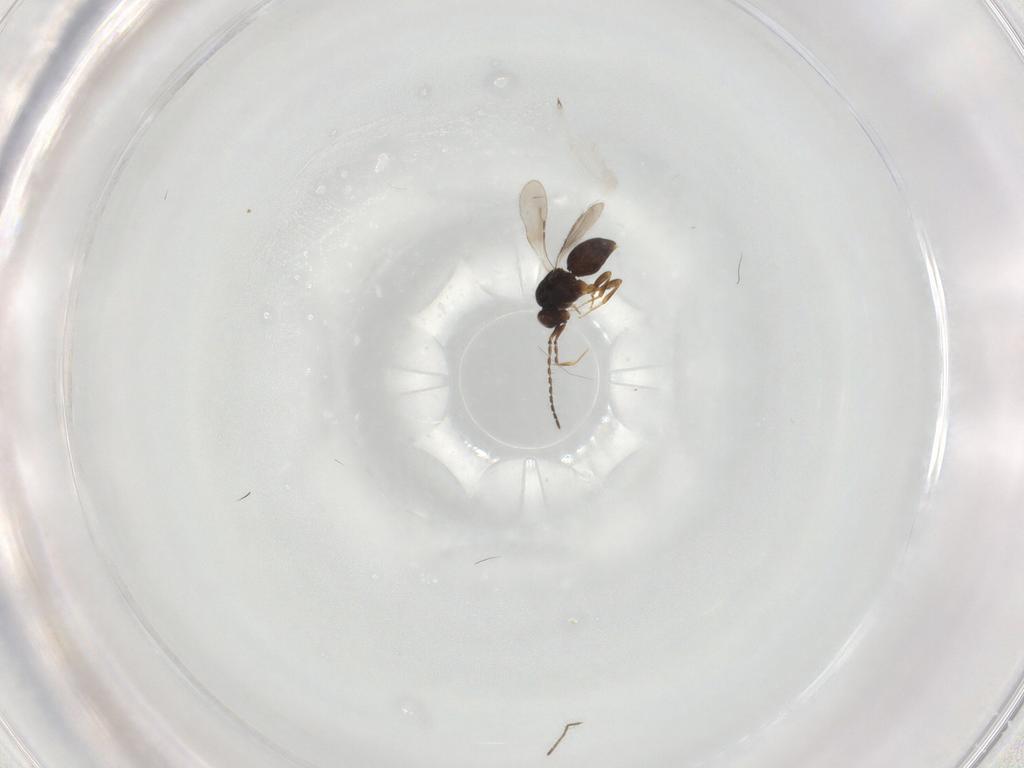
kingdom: Animalia
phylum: Arthropoda
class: Insecta
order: Hymenoptera
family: Ceraphronidae
